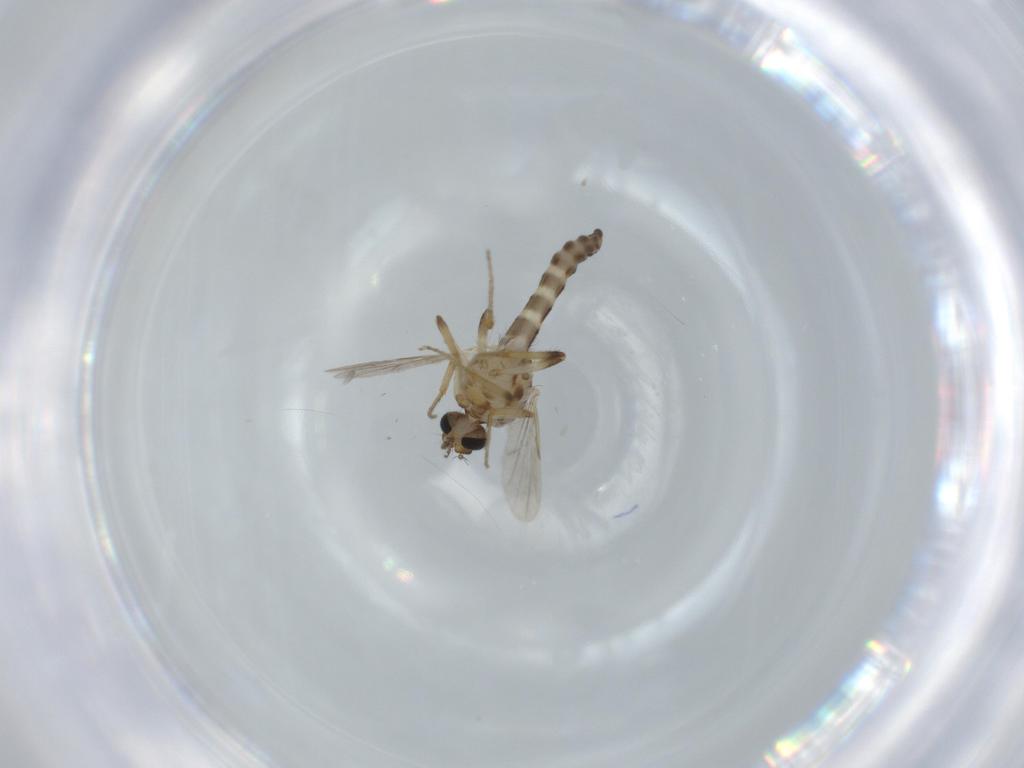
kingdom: Animalia
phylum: Arthropoda
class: Insecta
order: Diptera
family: Ceratopogonidae
